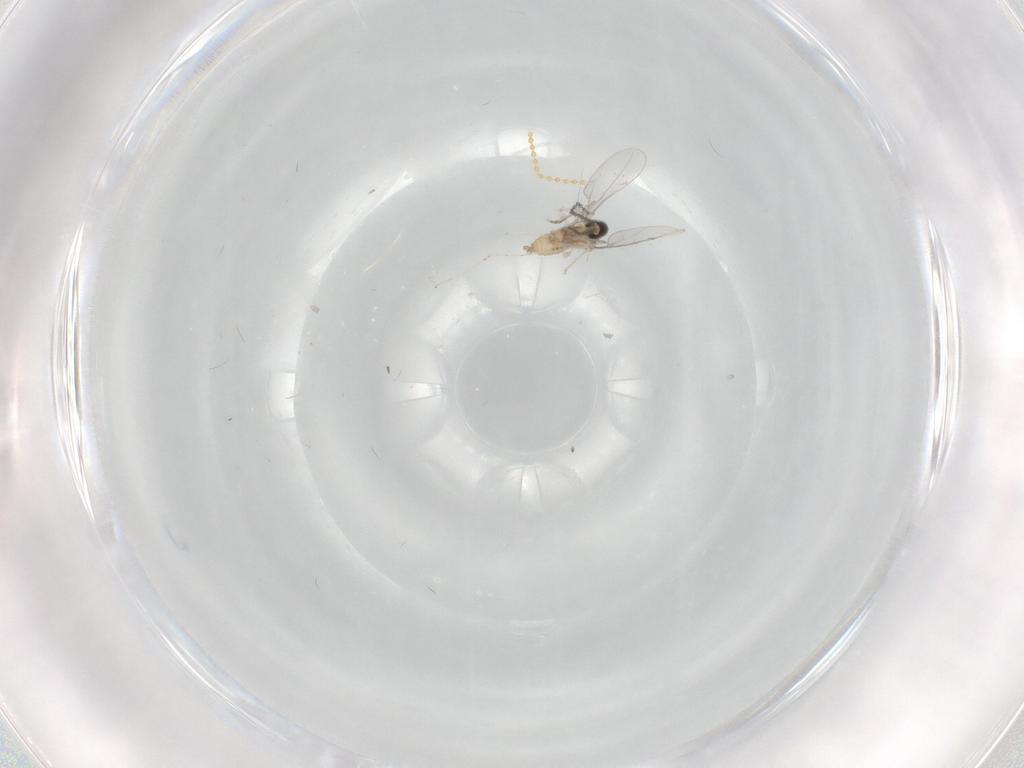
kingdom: Animalia
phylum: Arthropoda
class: Insecta
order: Diptera
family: Cecidomyiidae
